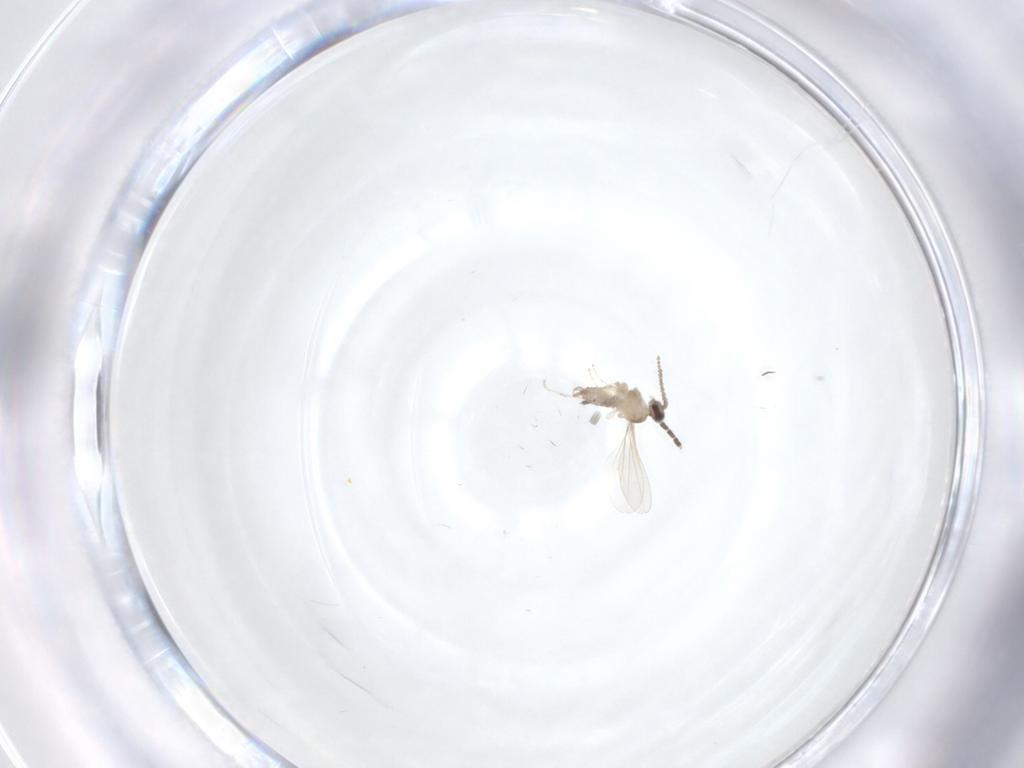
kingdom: Animalia
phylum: Arthropoda
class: Insecta
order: Diptera
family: Cecidomyiidae
